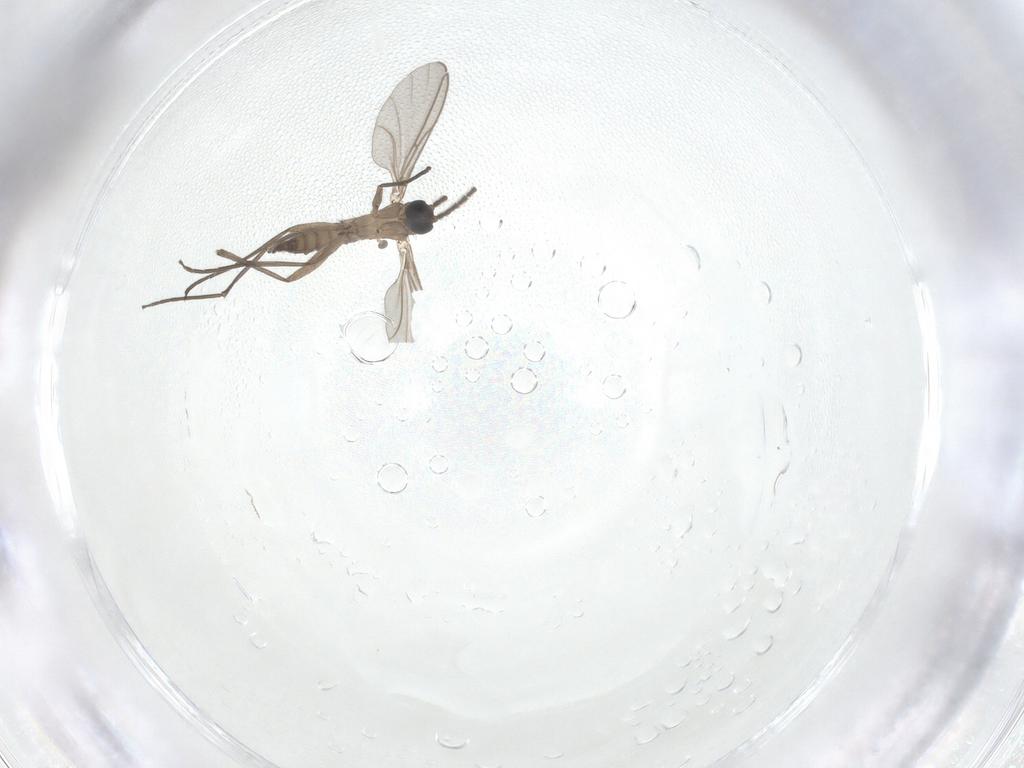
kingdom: Animalia
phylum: Arthropoda
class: Insecta
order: Diptera
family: Sciaridae
